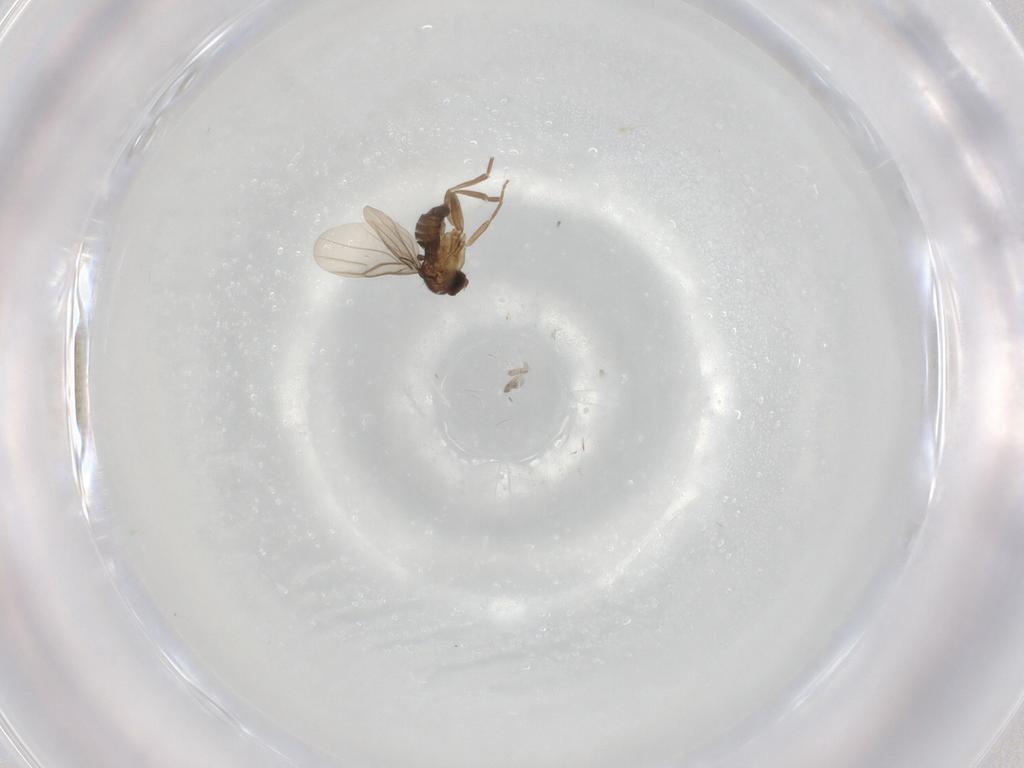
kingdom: Animalia
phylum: Arthropoda
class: Insecta
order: Diptera
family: Phoridae
